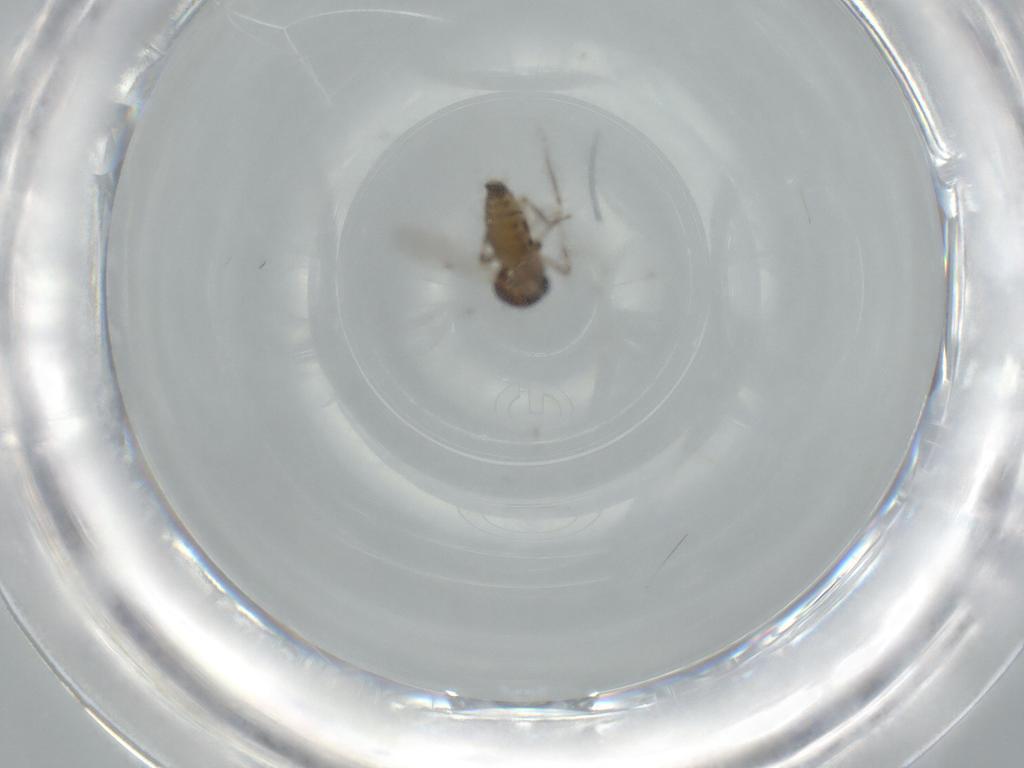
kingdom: Animalia
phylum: Arthropoda
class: Insecta
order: Diptera
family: Ceratopogonidae
